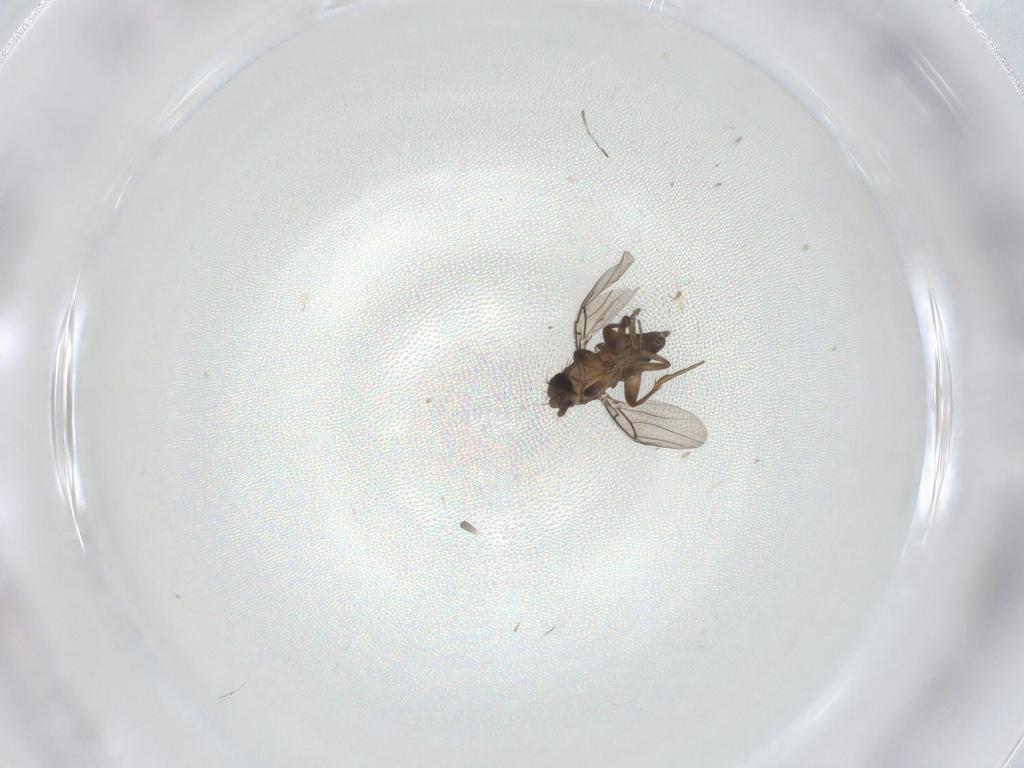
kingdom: Animalia
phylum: Arthropoda
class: Insecta
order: Diptera
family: Phoridae
